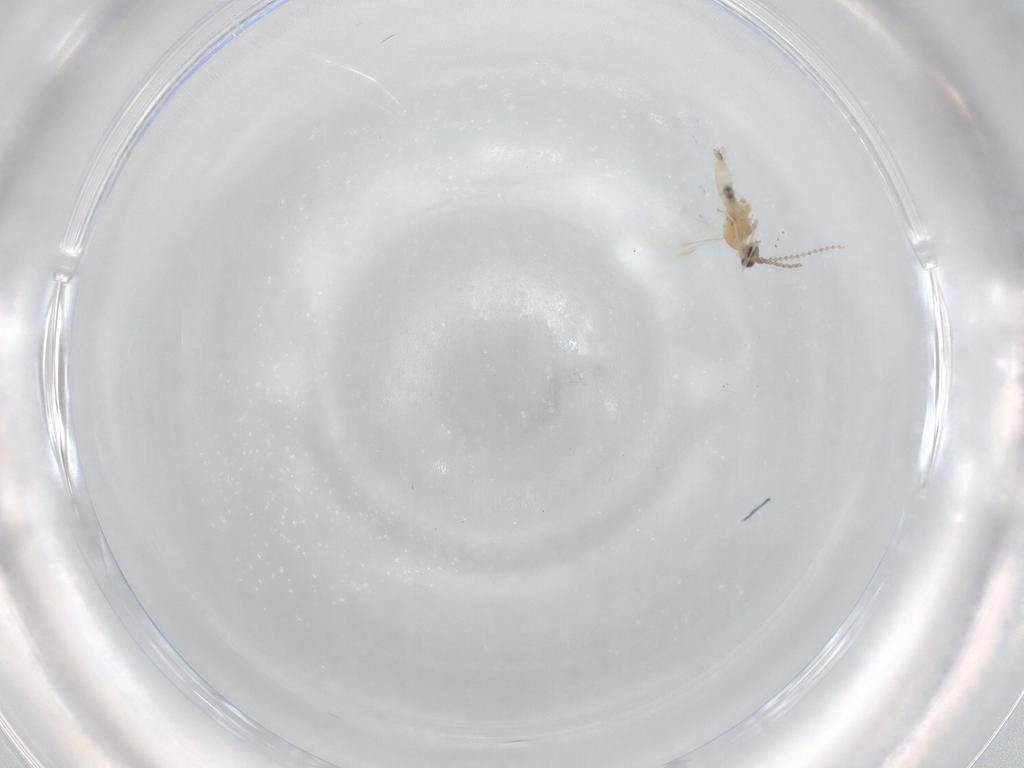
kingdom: Animalia
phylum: Arthropoda
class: Insecta
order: Diptera
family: Cecidomyiidae
